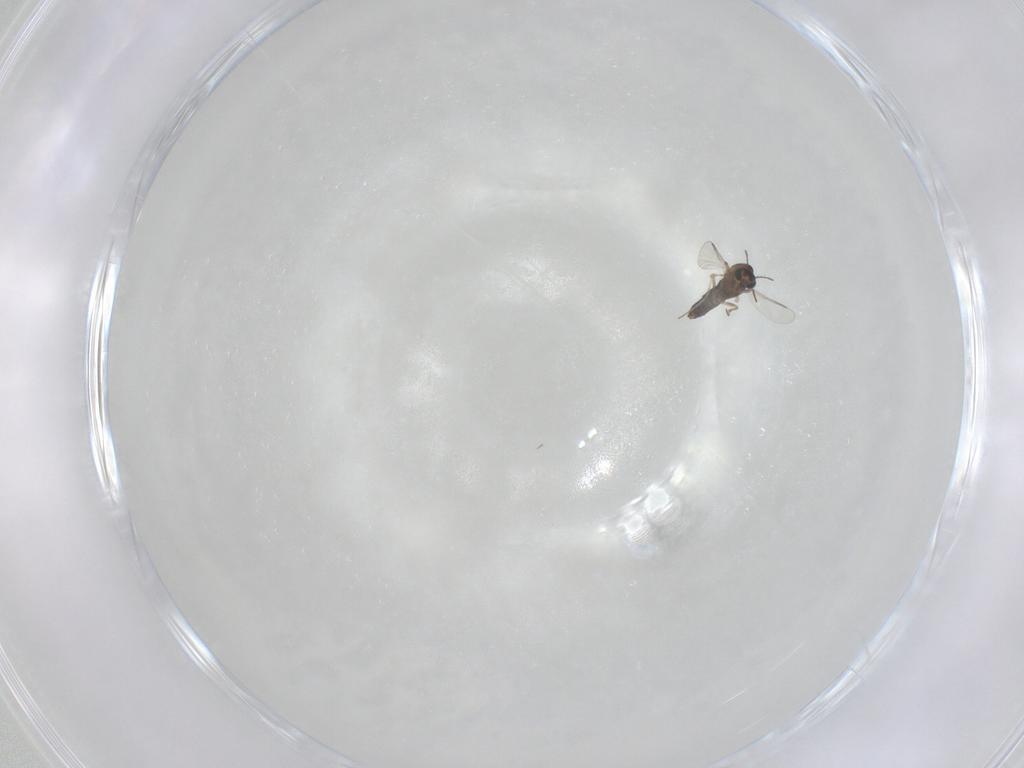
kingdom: Animalia
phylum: Arthropoda
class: Insecta
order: Diptera
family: Chironomidae
